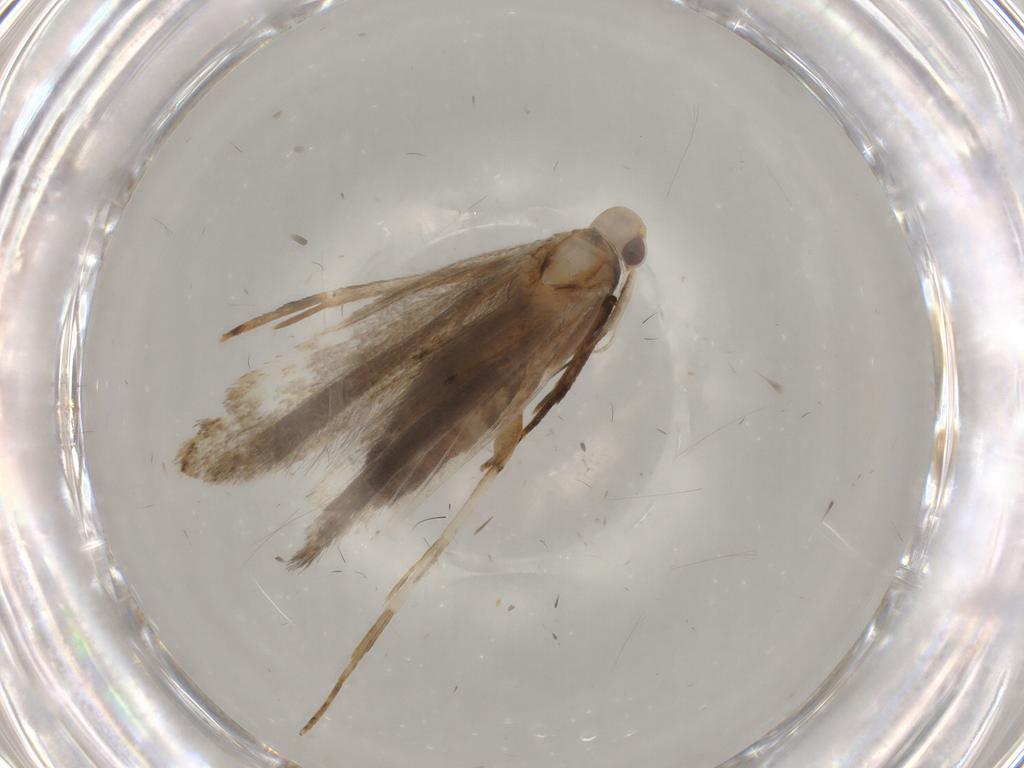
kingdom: Animalia
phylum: Arthropoda
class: Insecta
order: Lepidoptera
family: Gelechiidae
